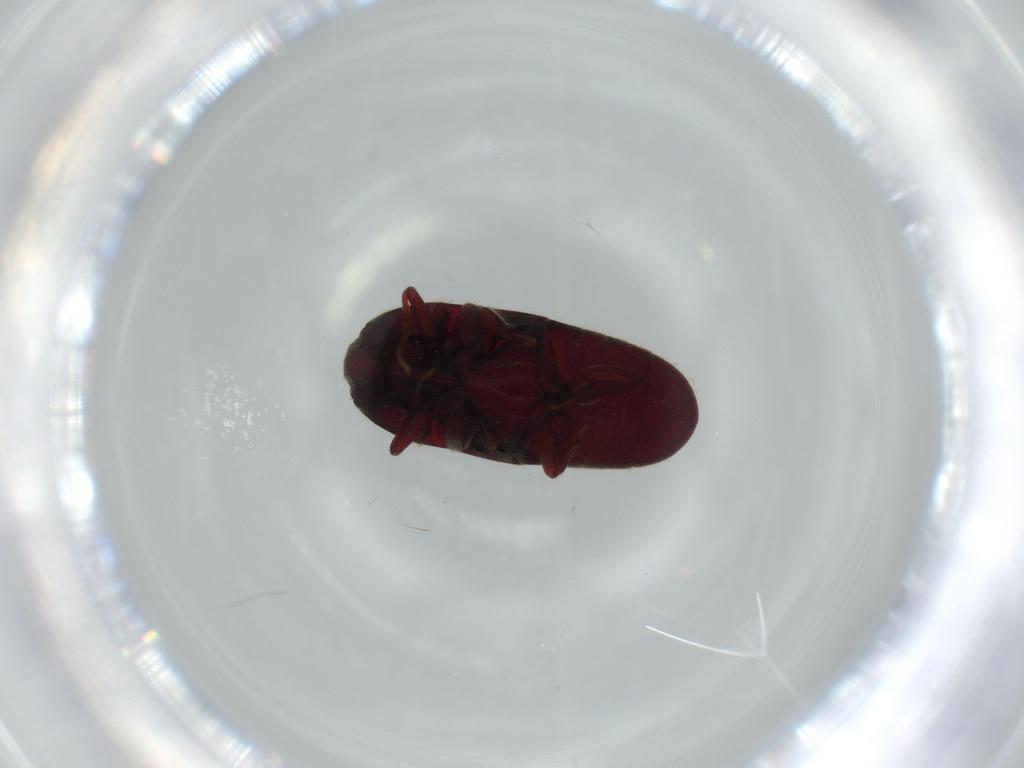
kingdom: Animalia
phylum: Arthropoda
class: Insecta
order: Coleoptera
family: Throscidae
